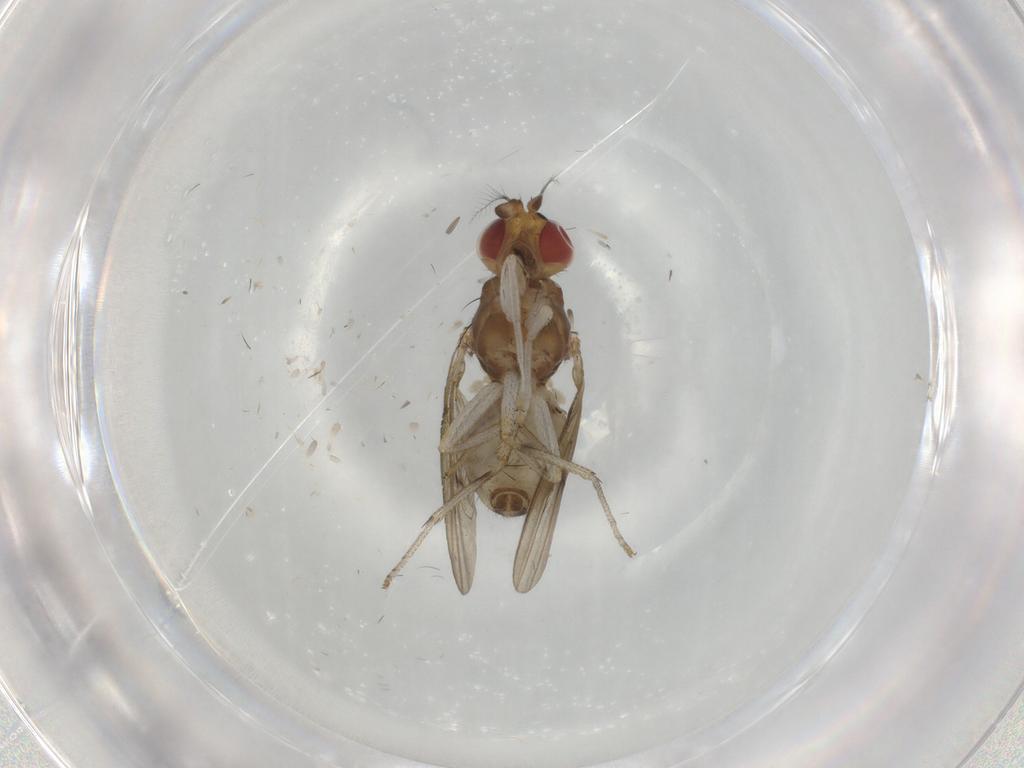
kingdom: Animalia
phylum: Arthropoda
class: Insecta
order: Diptera
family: Lauxaniidae
